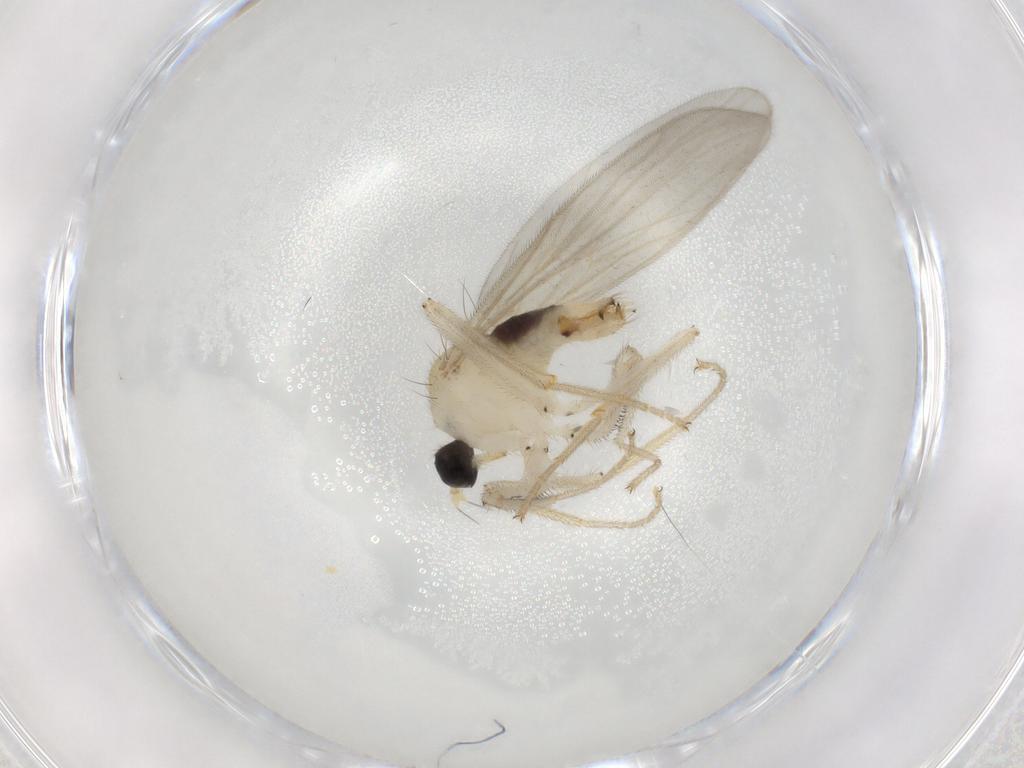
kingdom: Animalia
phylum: Arthropoda
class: Insecta
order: Diptera
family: Hybotidae
